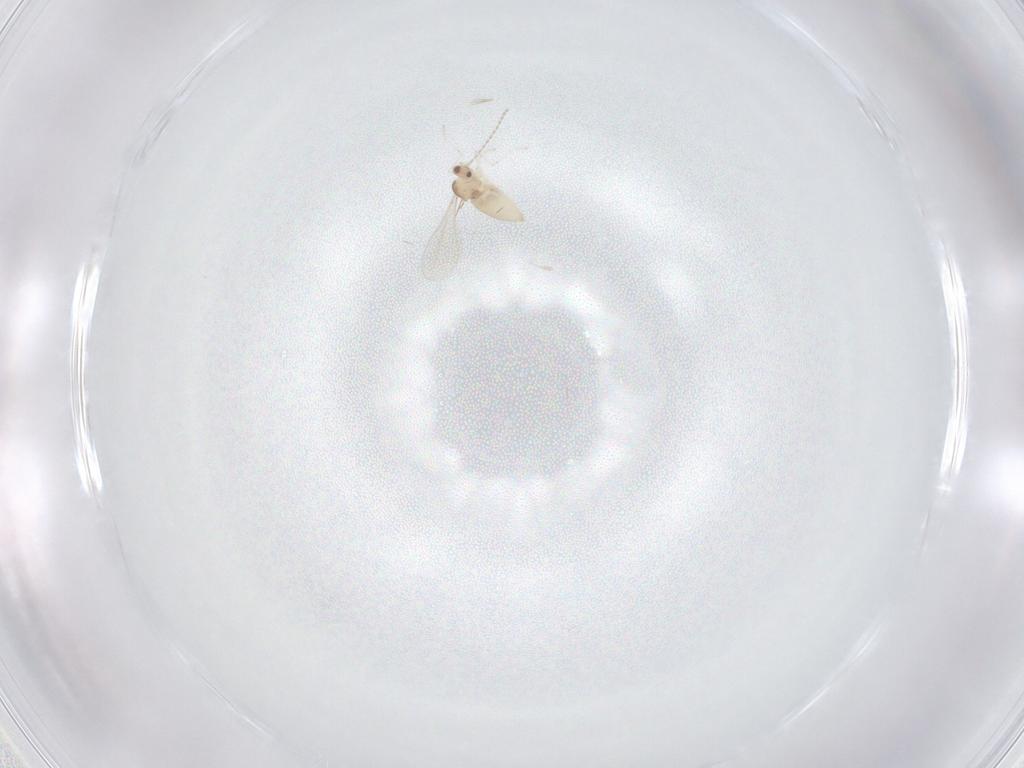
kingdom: Animalia
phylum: Arthropoda
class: Insecta
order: Diptera
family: Cecidomyiidae
